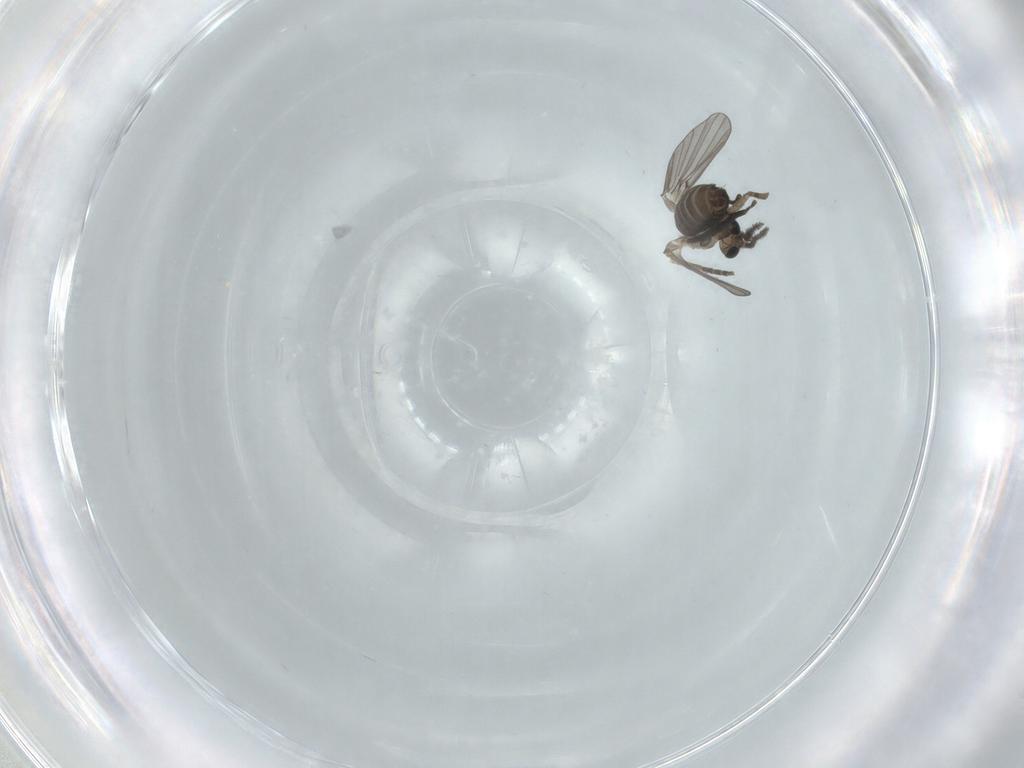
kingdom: Animalia
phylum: Arthropoda
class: Insecta
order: Diptera
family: Psychodidae
